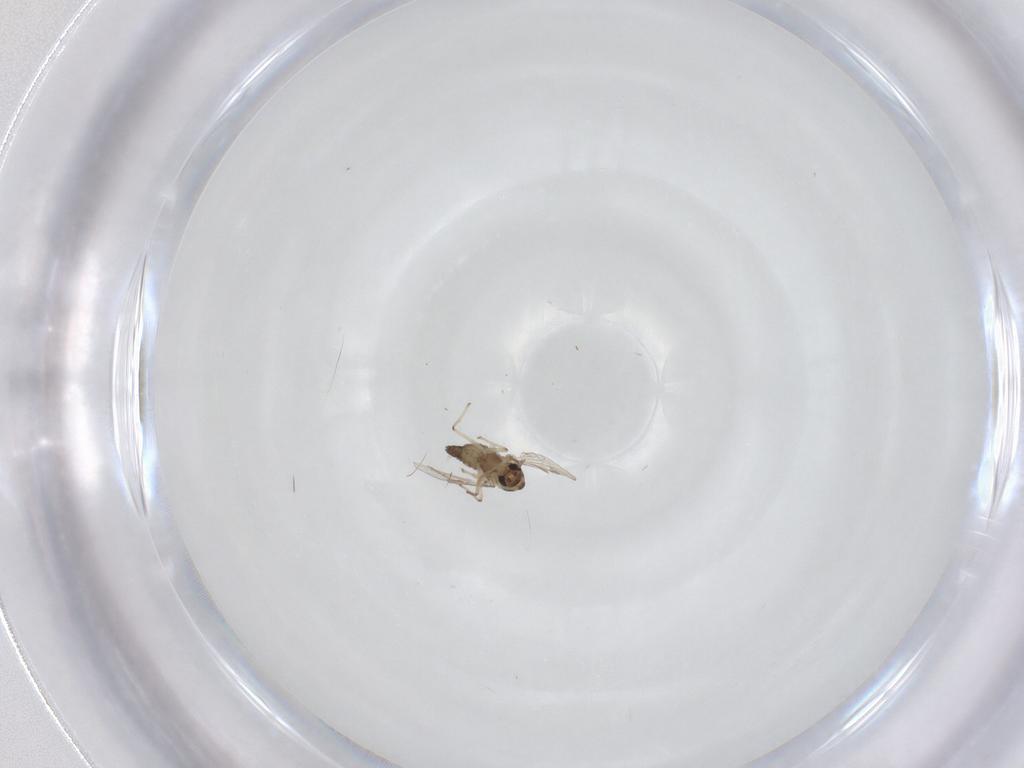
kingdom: Animalia
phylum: Arthropoda
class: Insecta
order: Diptera
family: Chironomidae
